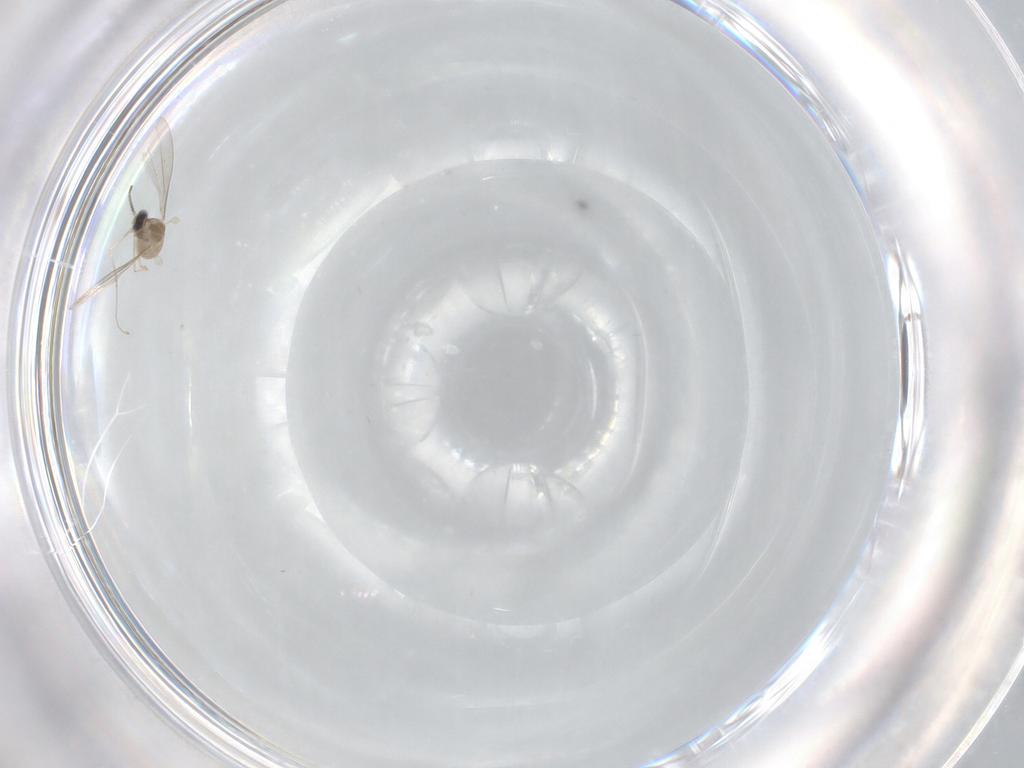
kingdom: Animalia
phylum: Arthropoda
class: Insecta
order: Diptera
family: Cecidomyiidae
